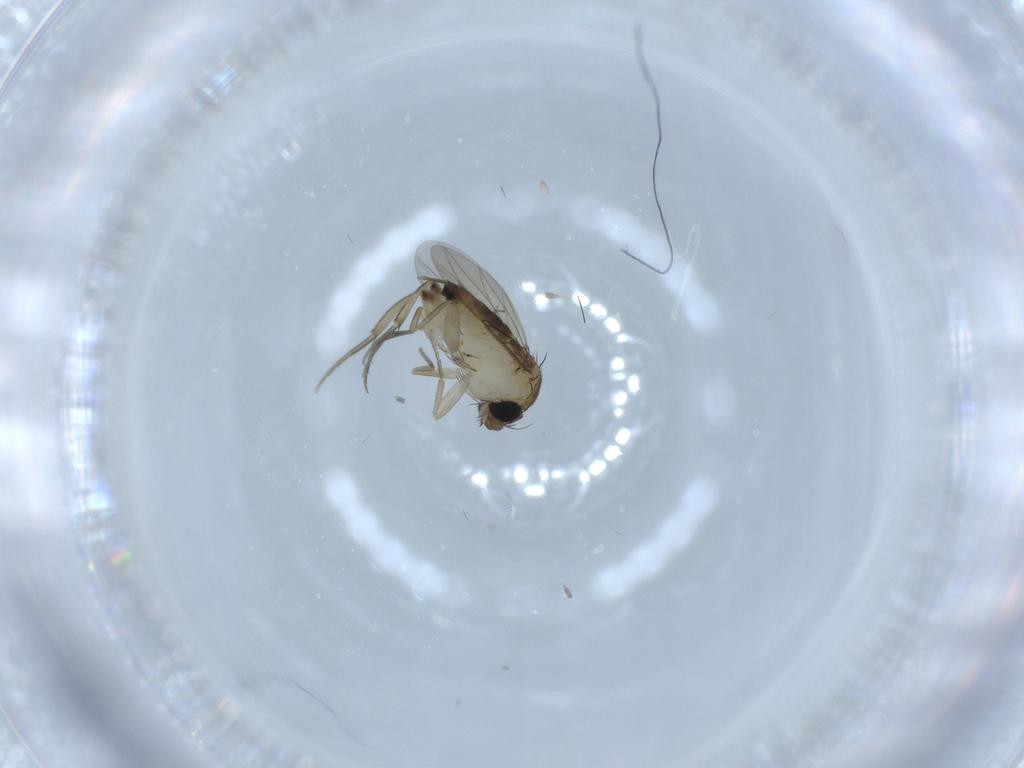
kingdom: Animalia
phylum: Arthropoda
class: Insecta
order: Diptera
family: Phoridae
